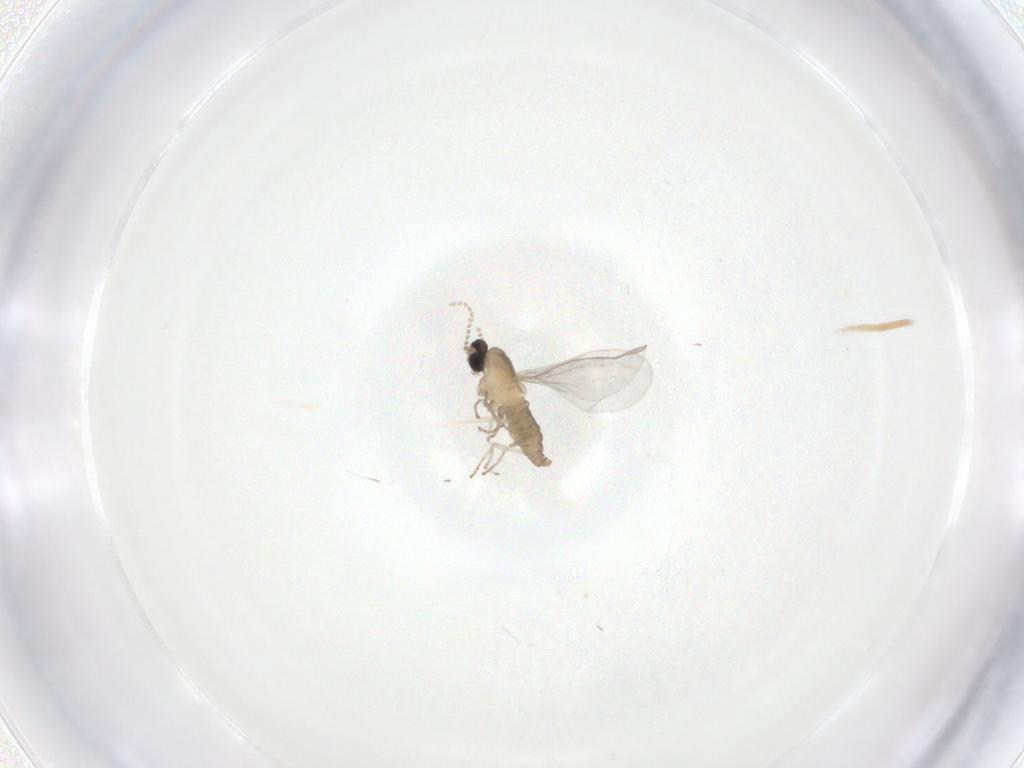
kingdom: Animalia
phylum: Arthropoda
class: Insecta
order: Diptera
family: Cecidomyiidae
